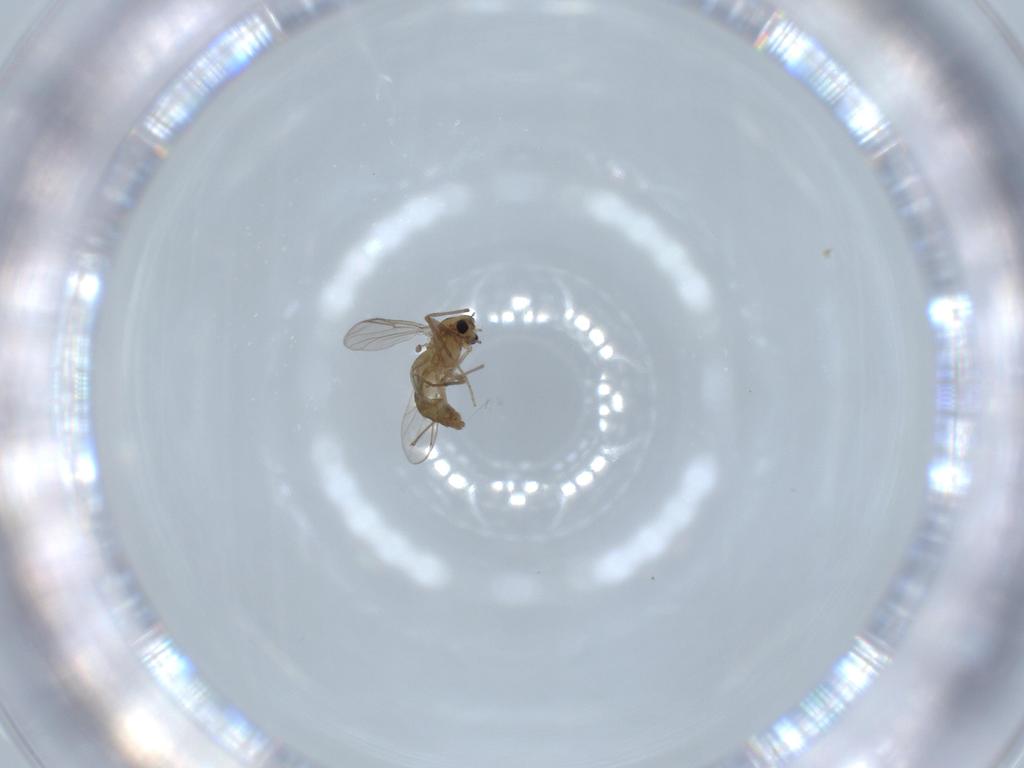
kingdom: Animalia
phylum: Arthropoda
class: Insecta
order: Diptera
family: Chironomidae
